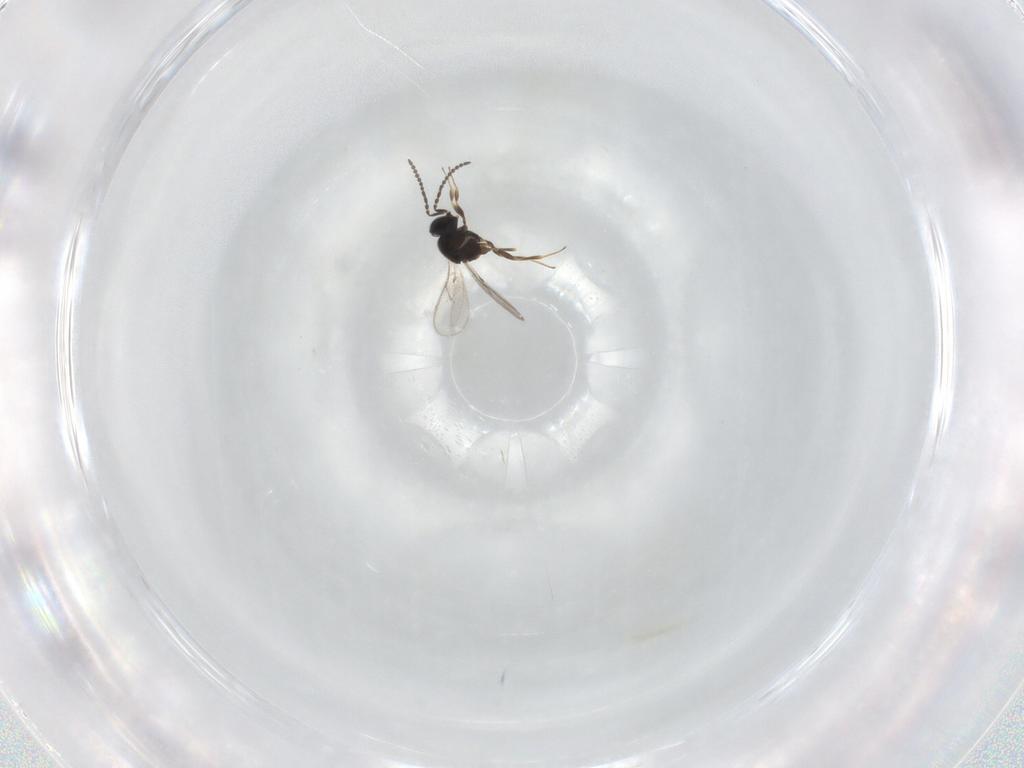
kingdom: Animalia
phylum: Arthropoda
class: Insecta
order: Hymenoptera
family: Scelionidae
